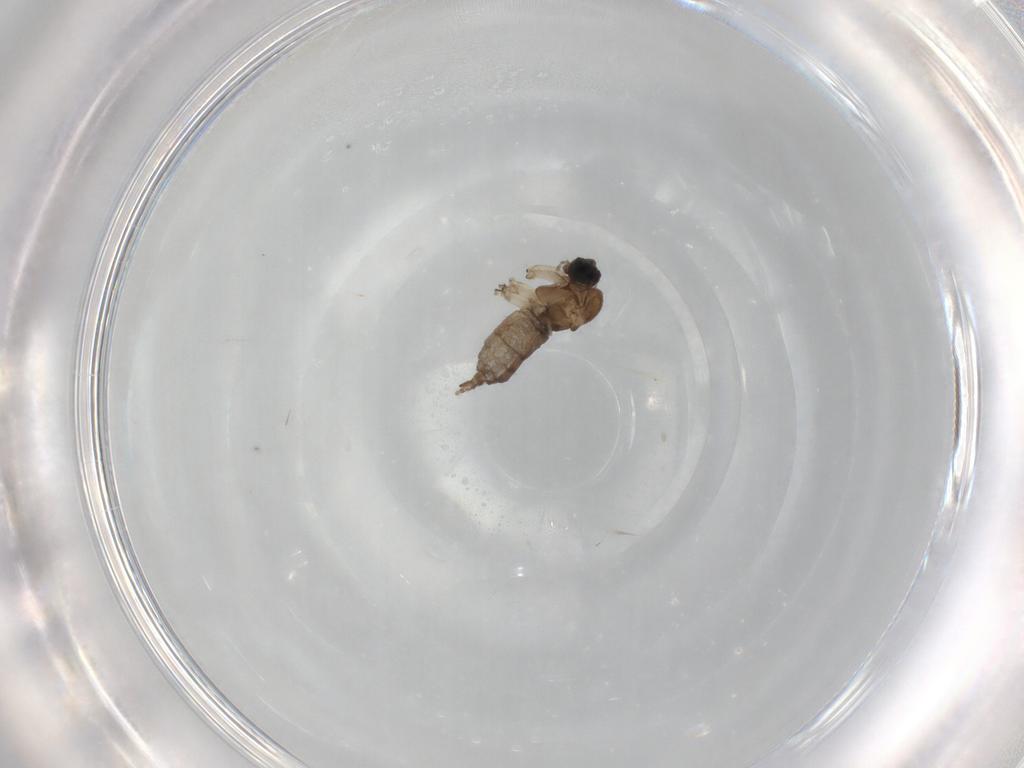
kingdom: Animalia
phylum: Arthropoda
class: Insecta
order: Diptera
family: Sciaridae
